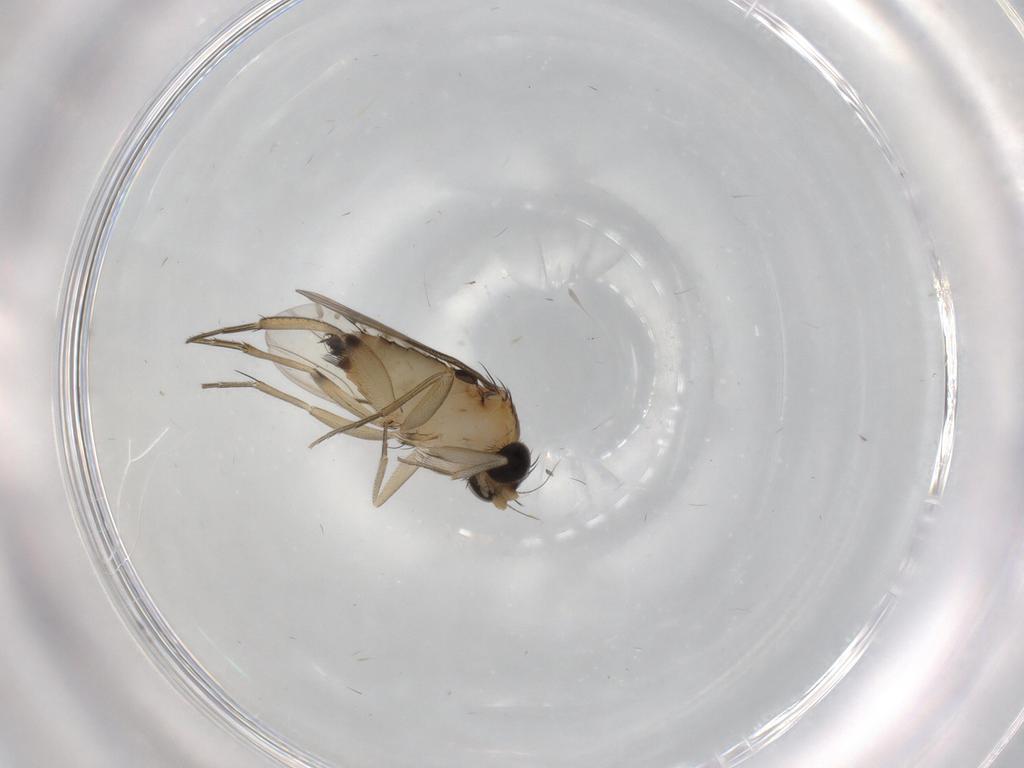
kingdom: Animalia
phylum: Arthropoda
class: Insecta
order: Diptera
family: Phoridae
